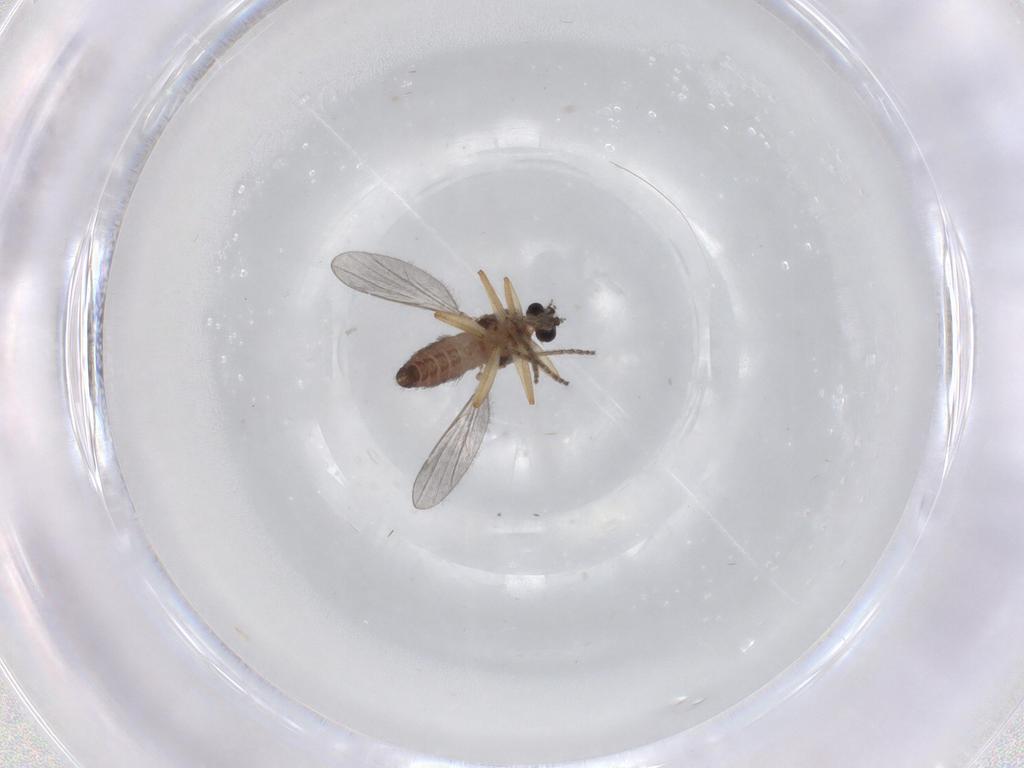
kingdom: Animalia
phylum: Arthropoda
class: Insecta
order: Diptera
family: Ceratopogonidae
